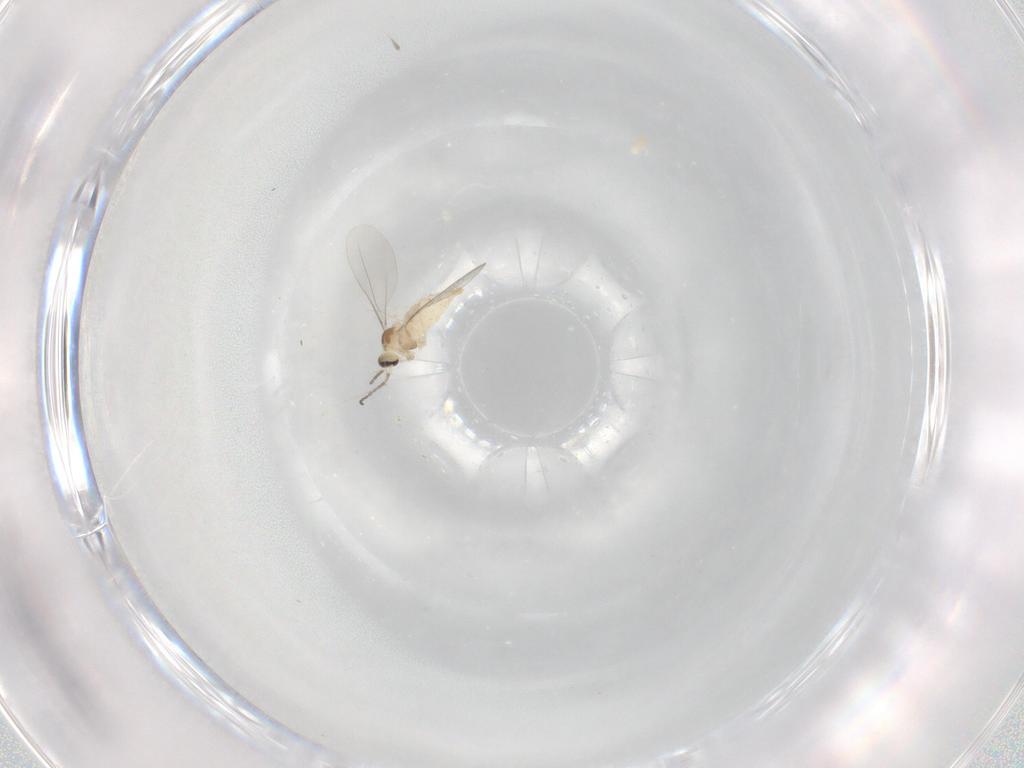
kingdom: Animalia
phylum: Arthropoda
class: Insecta
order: Diptera
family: Cecidomyiidae
